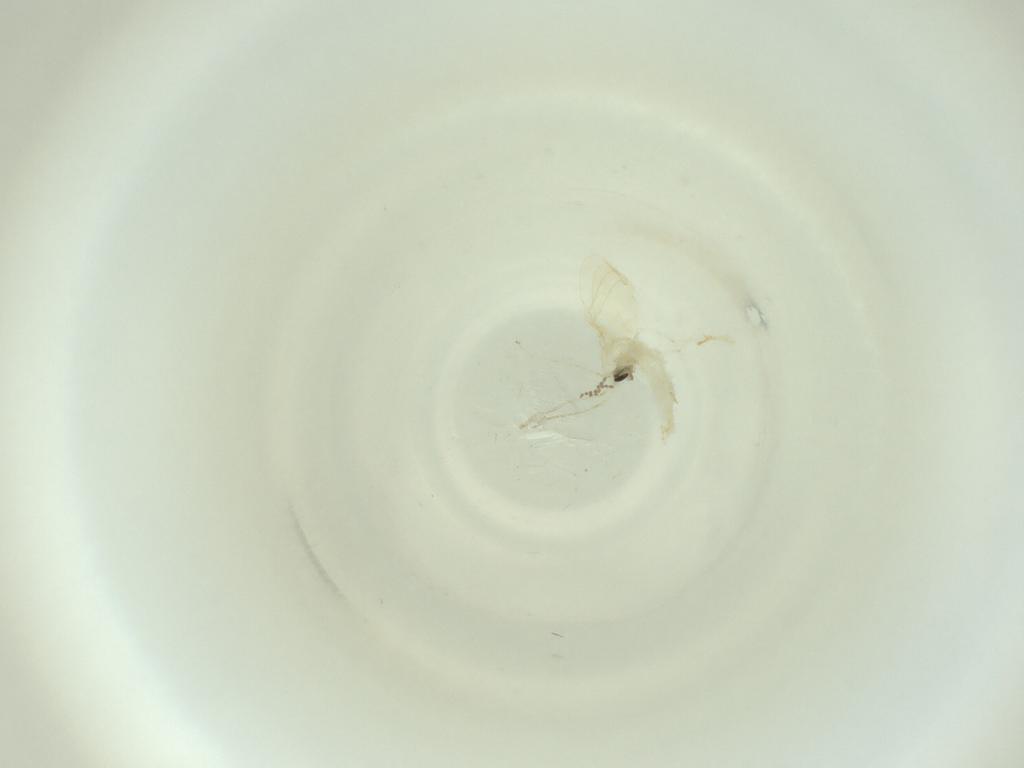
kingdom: Animalia
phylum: Arthropoda
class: Insecta
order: Diptera
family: Cecidomyiidae
